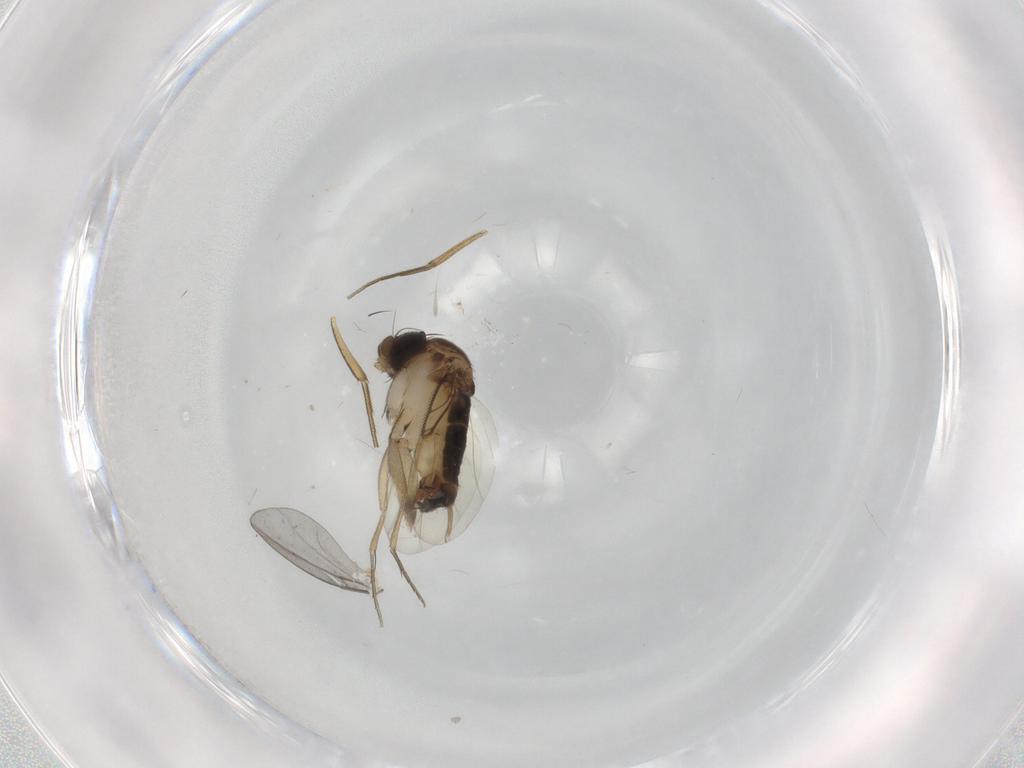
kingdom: Animalia
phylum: Arthropoda
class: Insecta
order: Diptera
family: Phoridae
